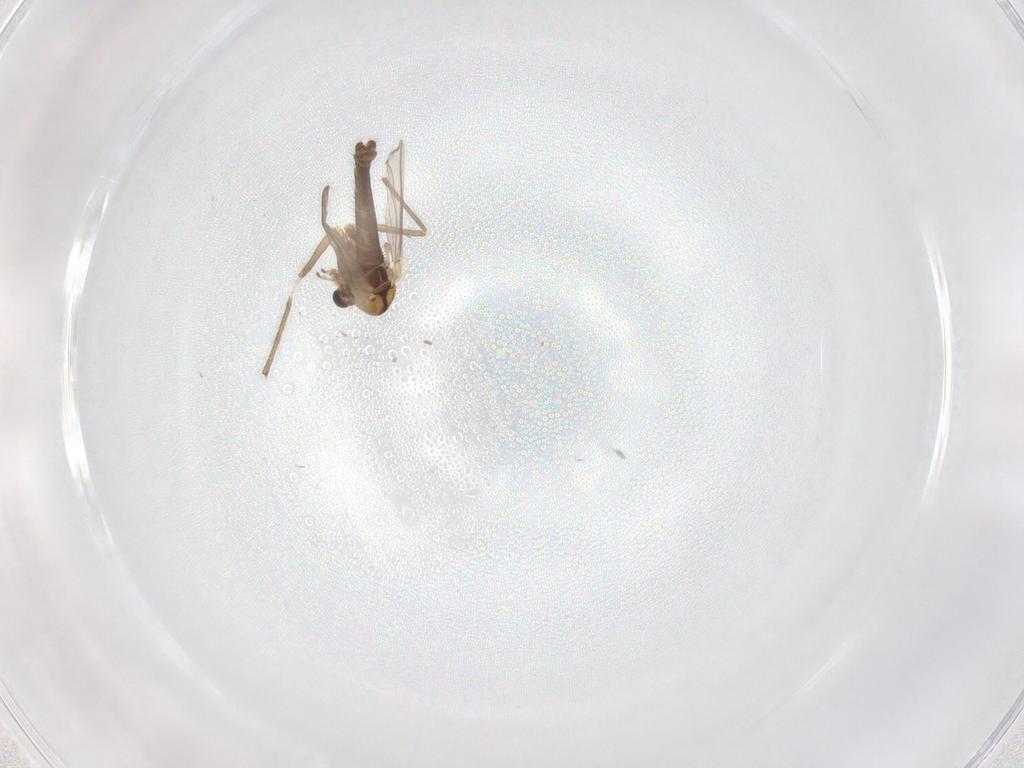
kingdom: Animalia
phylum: Arthropoda
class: Insecta
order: Diptera
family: Chironomidae
